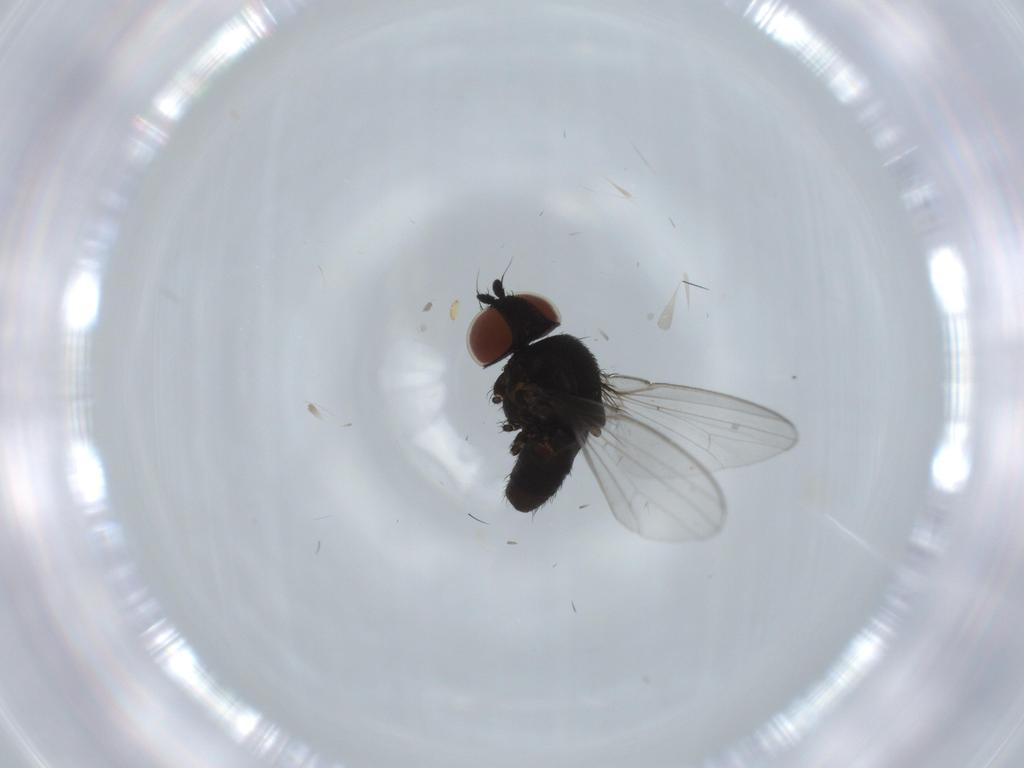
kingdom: Animalia
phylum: Arthropoda
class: Insecta
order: Diptera
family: Milichiidae
